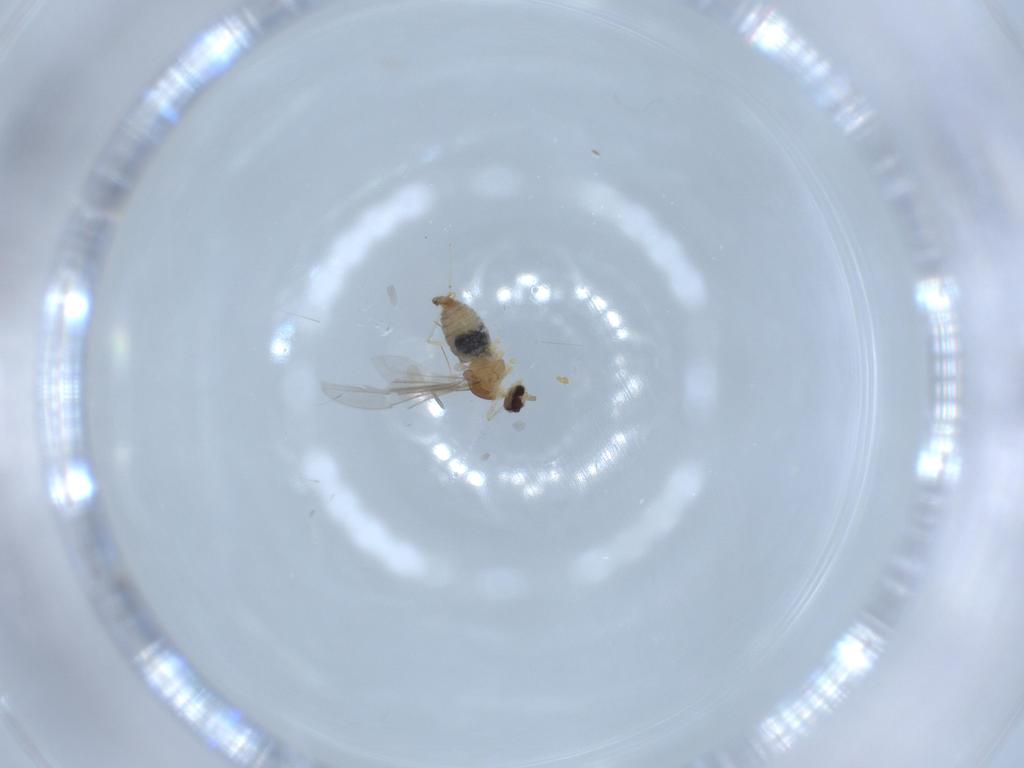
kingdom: Animalia
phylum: Arthropoda
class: Insecta
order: Diptera
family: Cecidomyiidae
